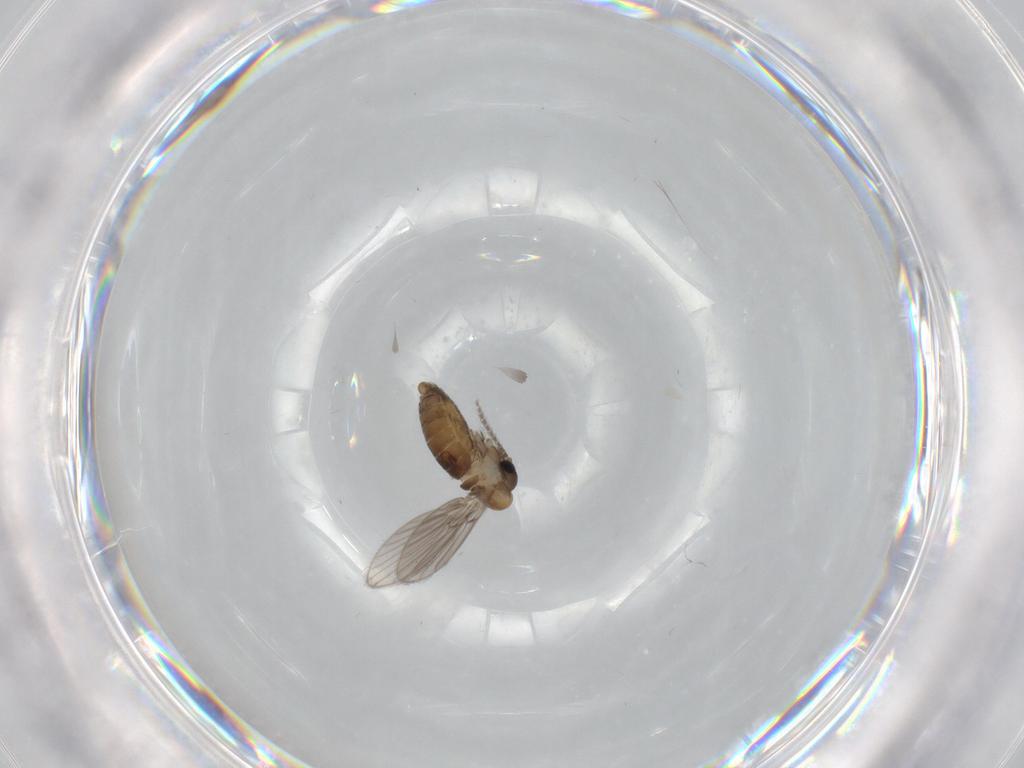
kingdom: Animalia
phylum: Arthropoda
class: Insecta
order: Diptera
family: Psychodidae
